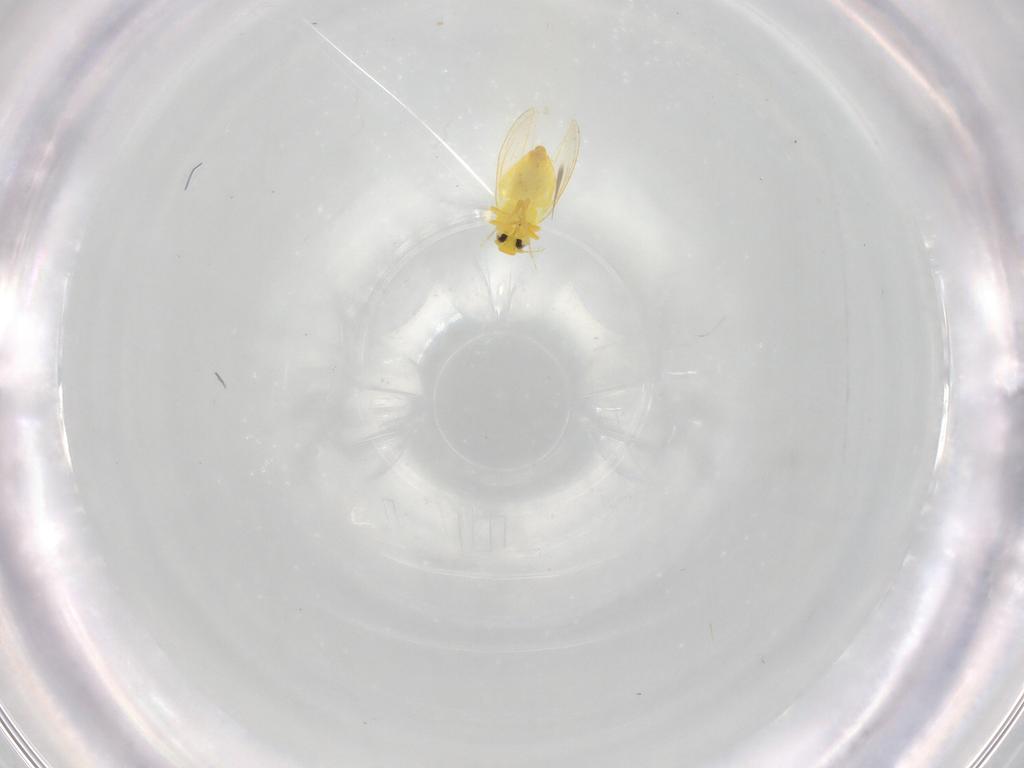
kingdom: Animalia
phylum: Arthropoda
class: Insecta
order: Hemiptera
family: Aleyrodidae
